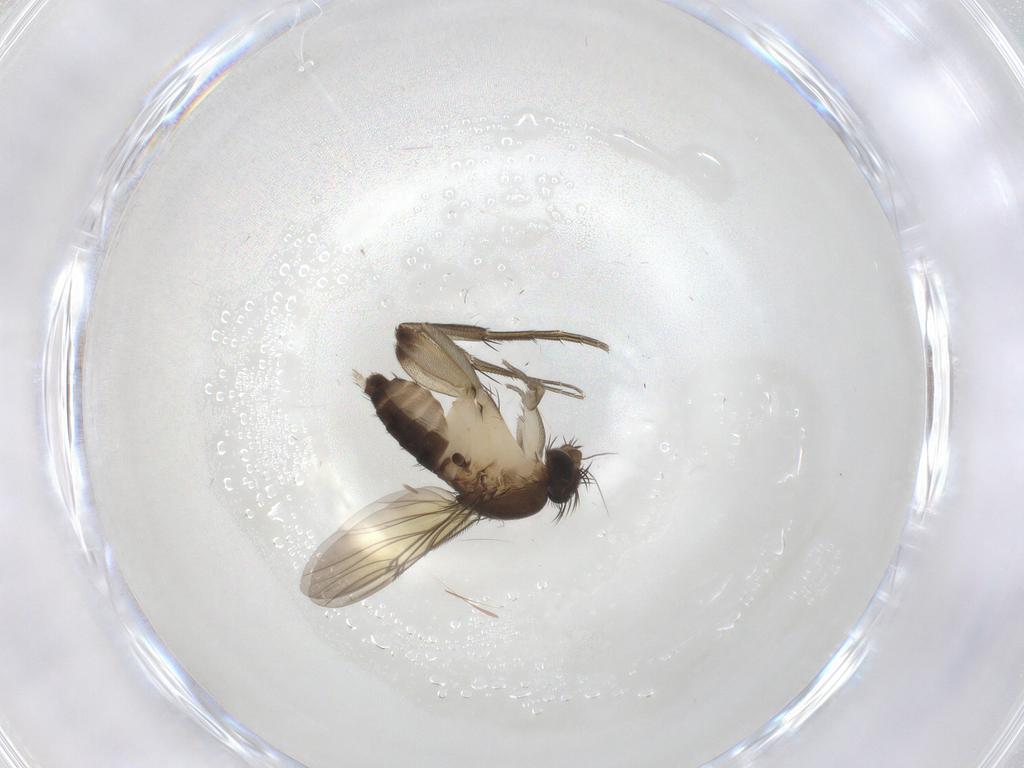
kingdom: Animalia
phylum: Arthropoda
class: Insecta
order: Diptera
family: Phoridae
